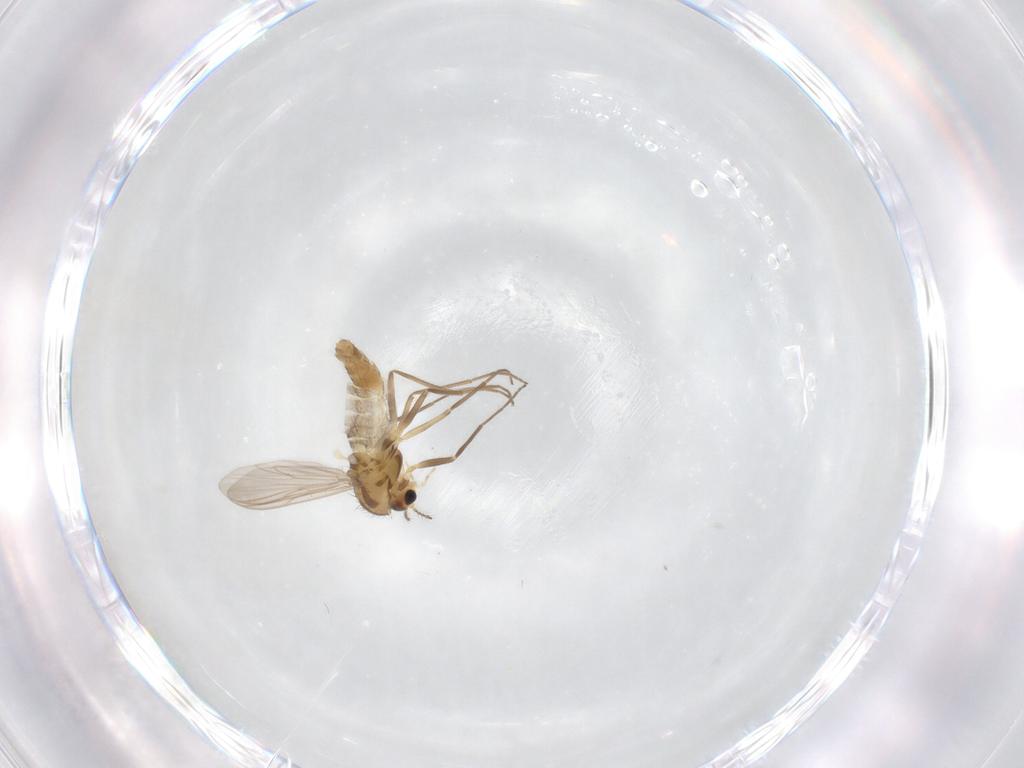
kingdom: Animalia
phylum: Arthropoda
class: Insecta
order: Diptera
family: Chironomidae
